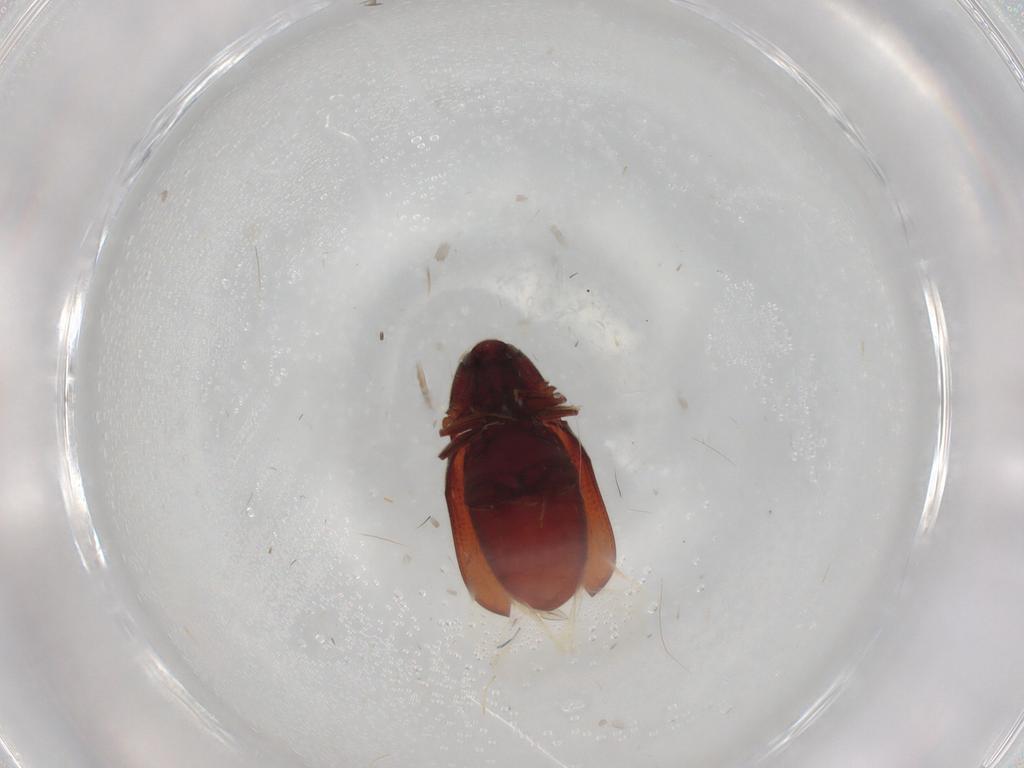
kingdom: Animalia
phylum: Arthropoda
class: Insecta
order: Coleoptera
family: Throscidae
